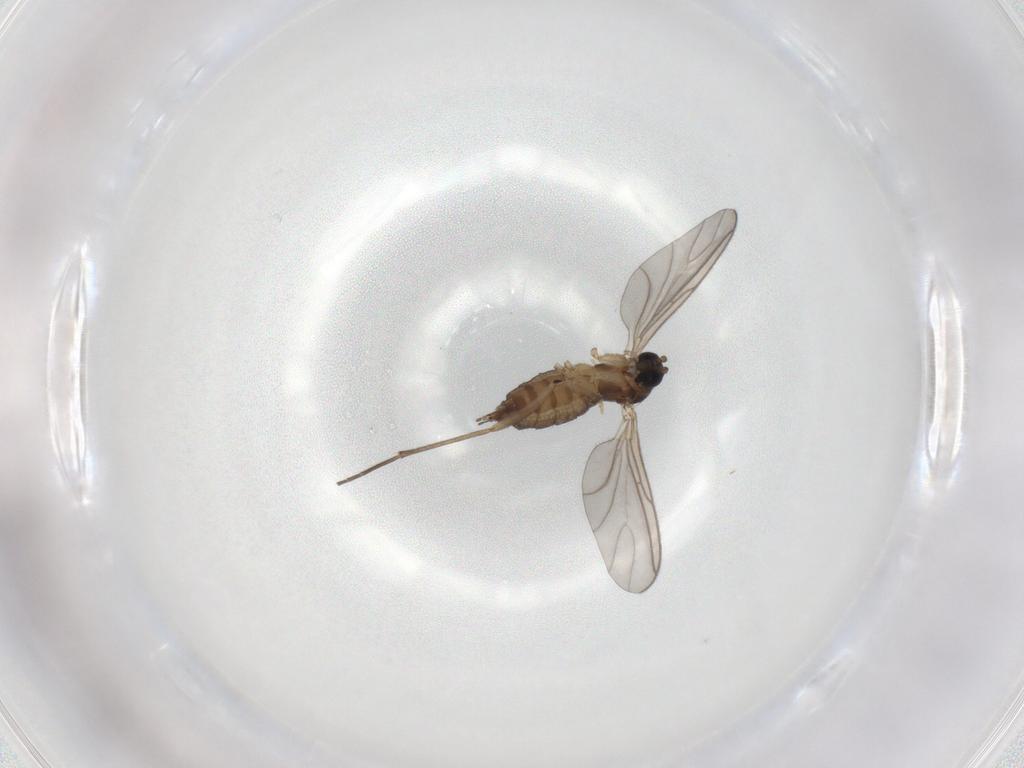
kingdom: Animalia
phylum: Arthropoda
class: Insecta
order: Diptera
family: Sciaridae
